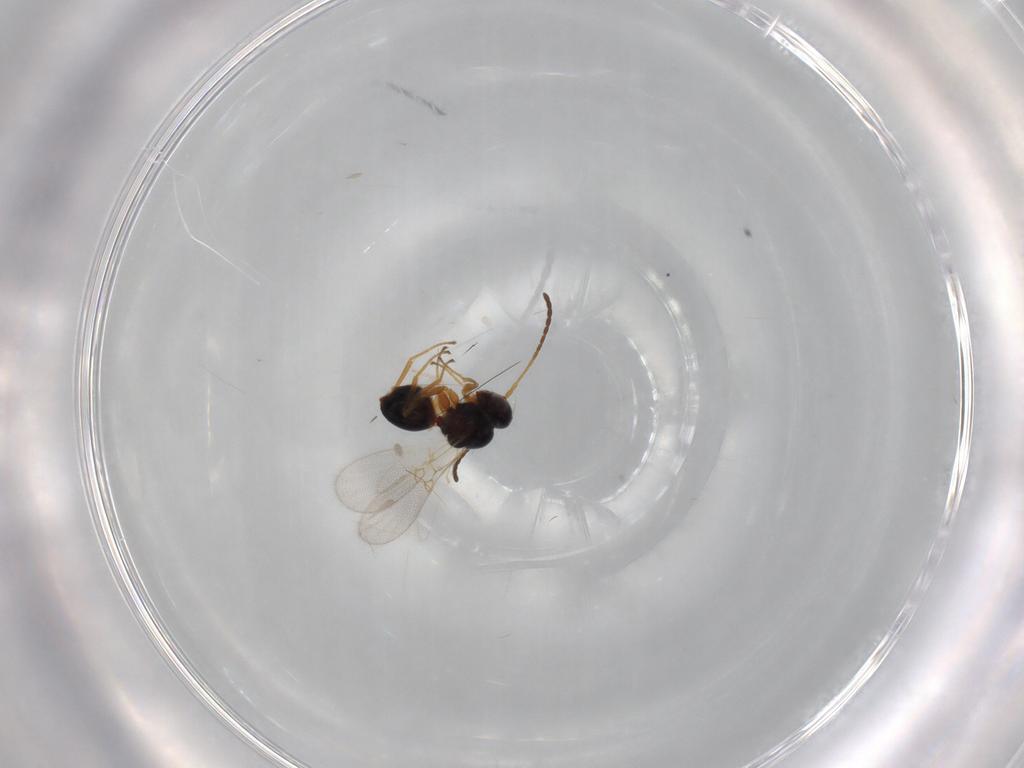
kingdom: Animalia
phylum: Arthropoda
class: Insecta
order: Hymenoptera
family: Figitidae
